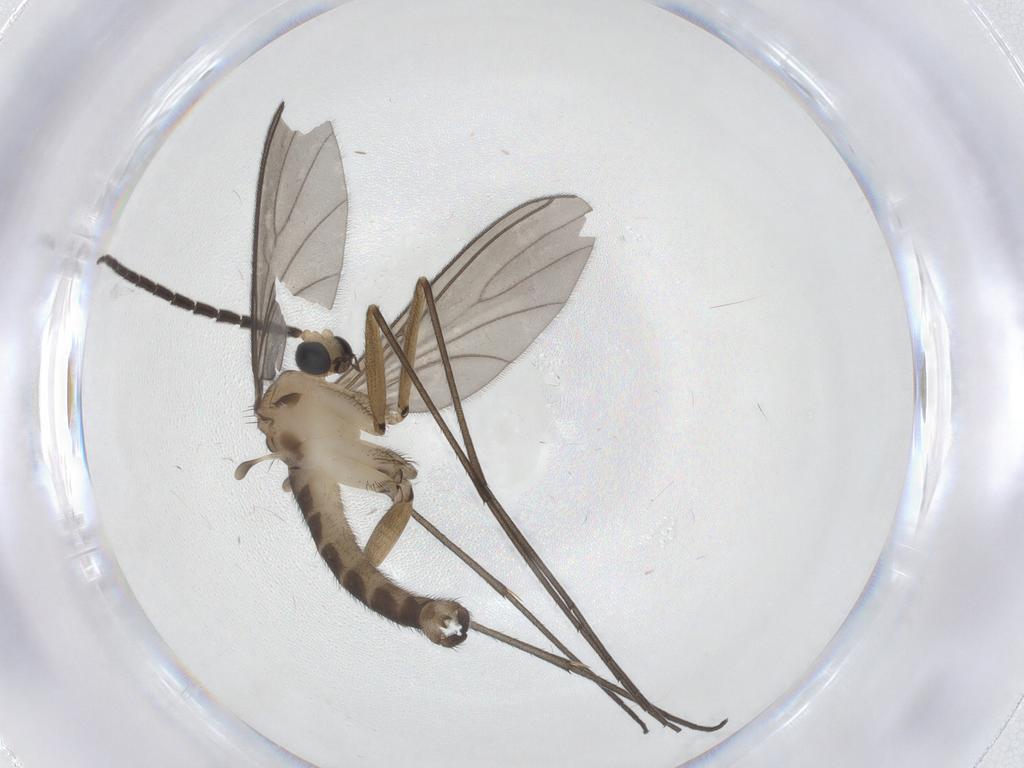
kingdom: Animalia
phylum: Arthropoda
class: Insecta
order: Diptera
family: Sciaridae
